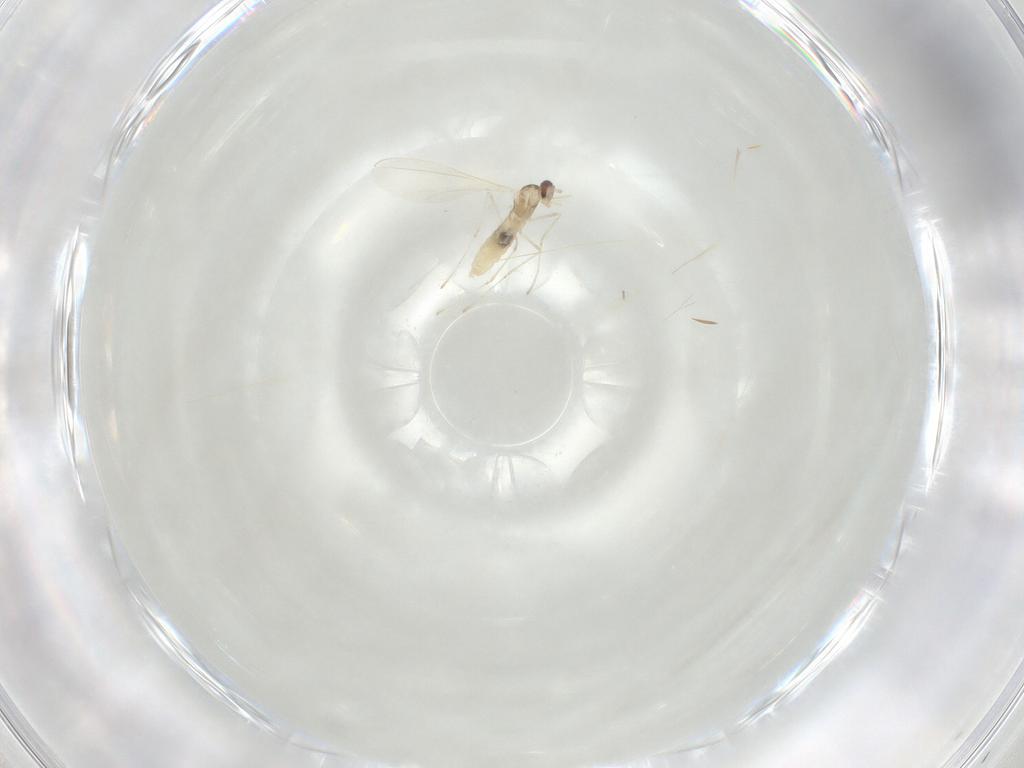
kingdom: Animalia
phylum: Arthropoda
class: Insecta
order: Diptera
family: Cecidomyiidae
